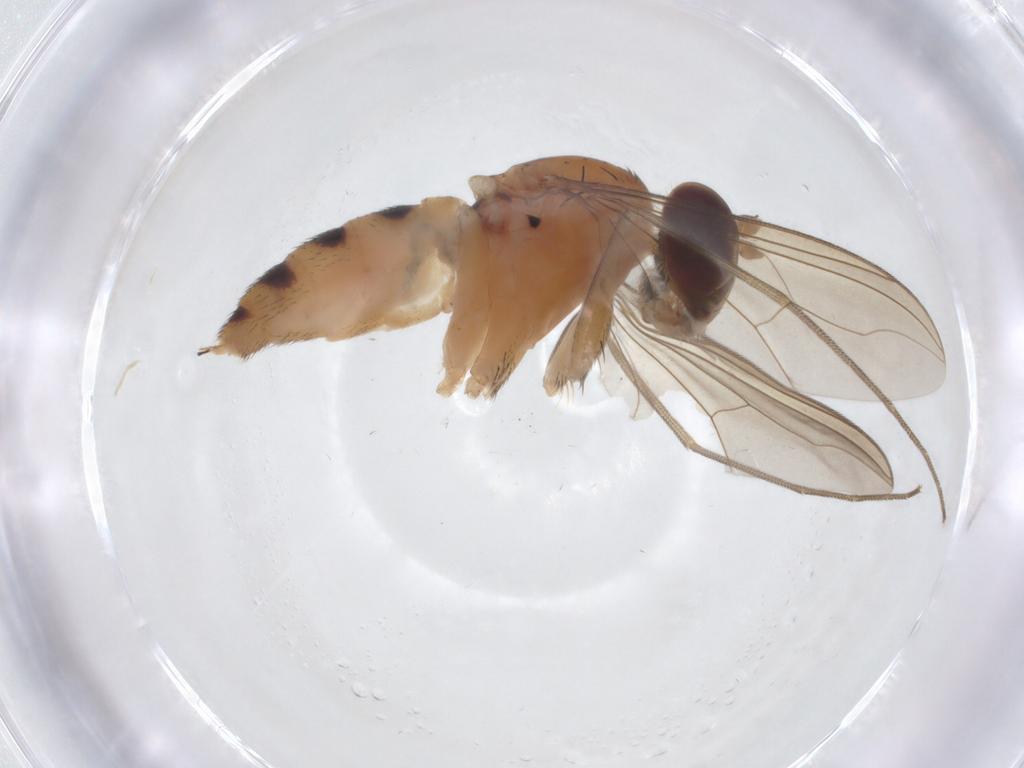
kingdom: Animalia
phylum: Arthropoda
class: Insecta
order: Diptera
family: Dolichopodidae
